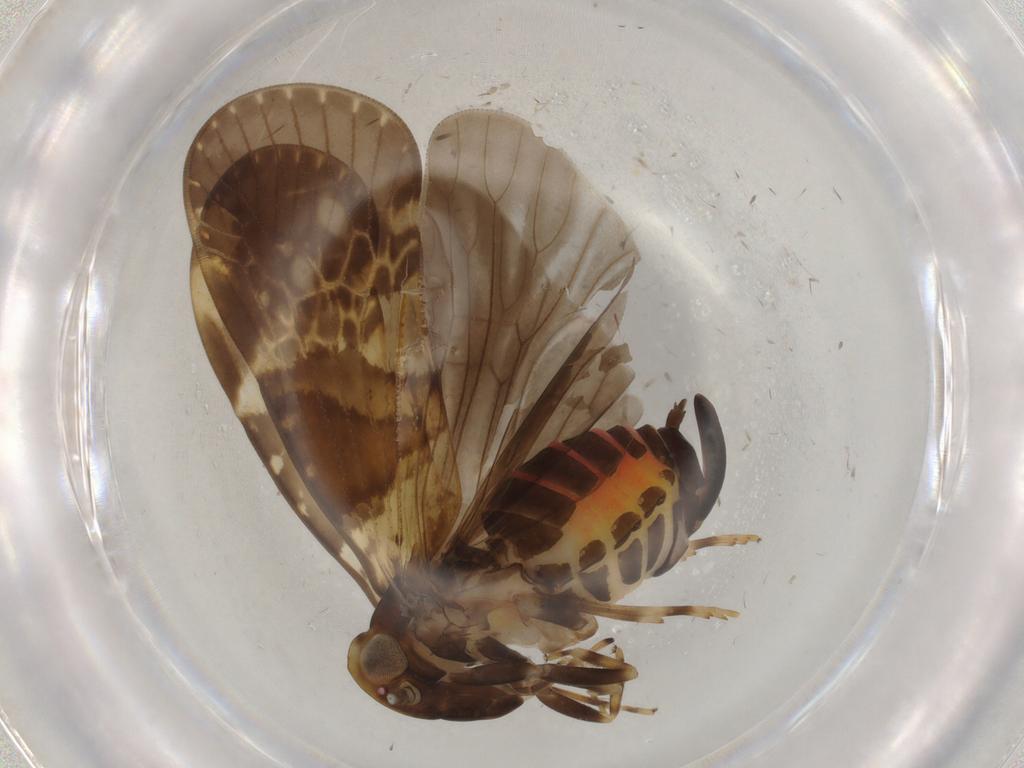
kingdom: Animalia
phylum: Arthropoda
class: Insecta
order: Hemiptera
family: Cixiidae
